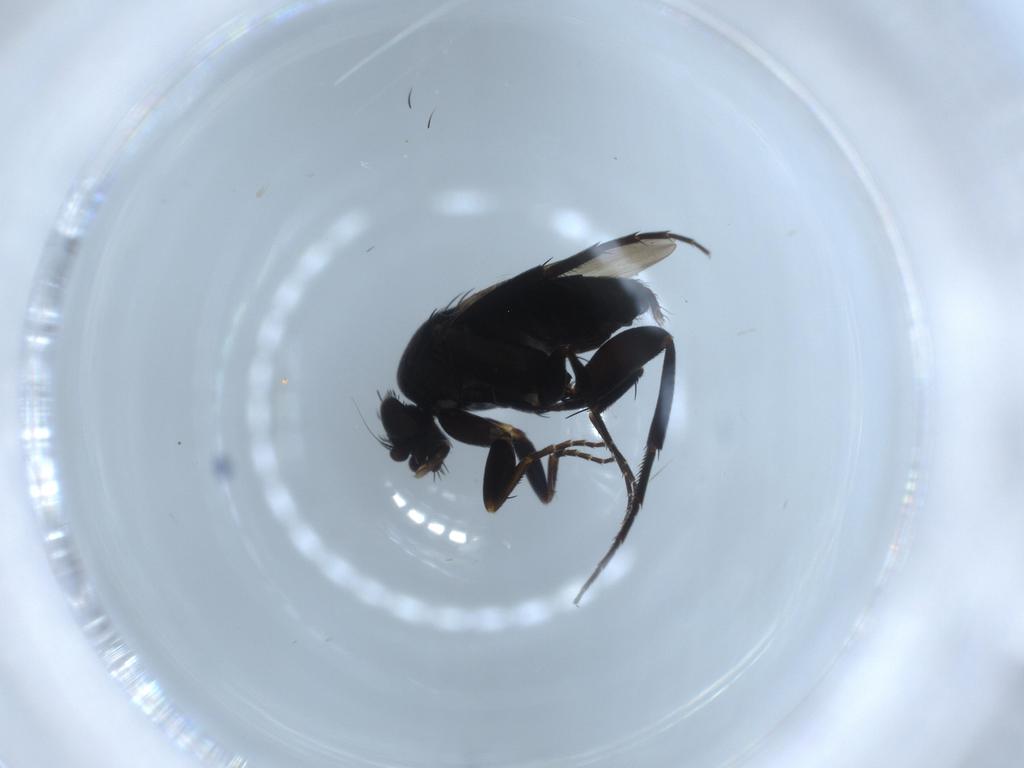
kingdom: Animalia
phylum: Arthropoda
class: Insecta
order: Diptera
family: Phoridae
